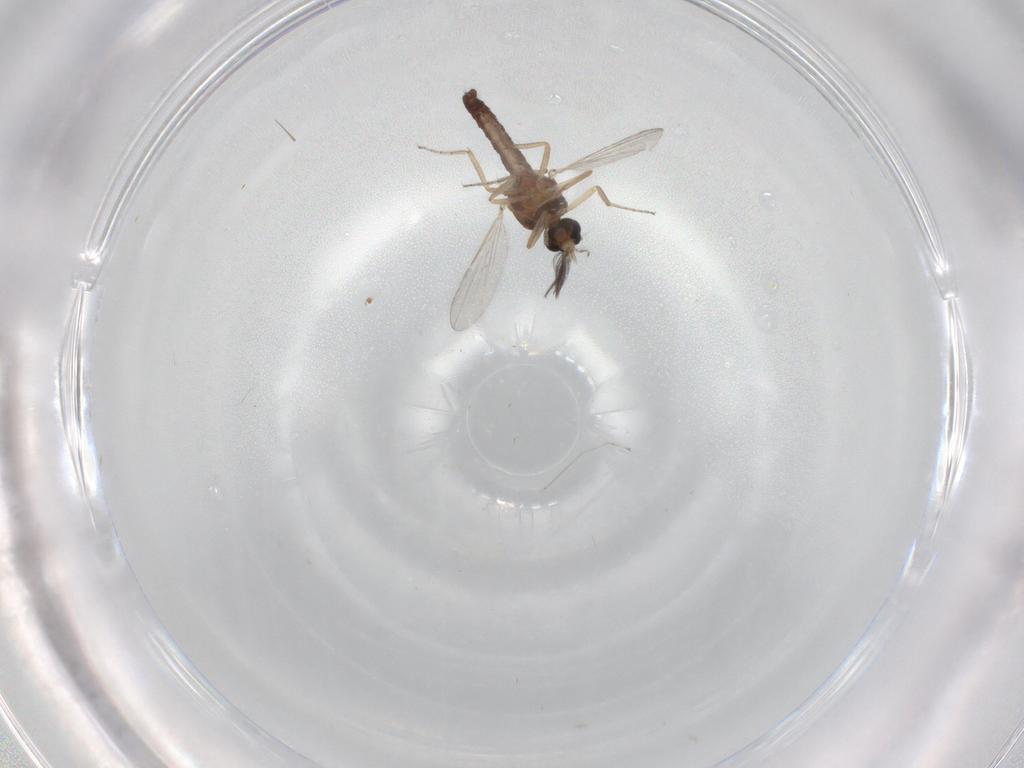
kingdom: Animalia
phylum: Arthropoda
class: Insecta
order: Diptera
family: Ceratopogonidae
